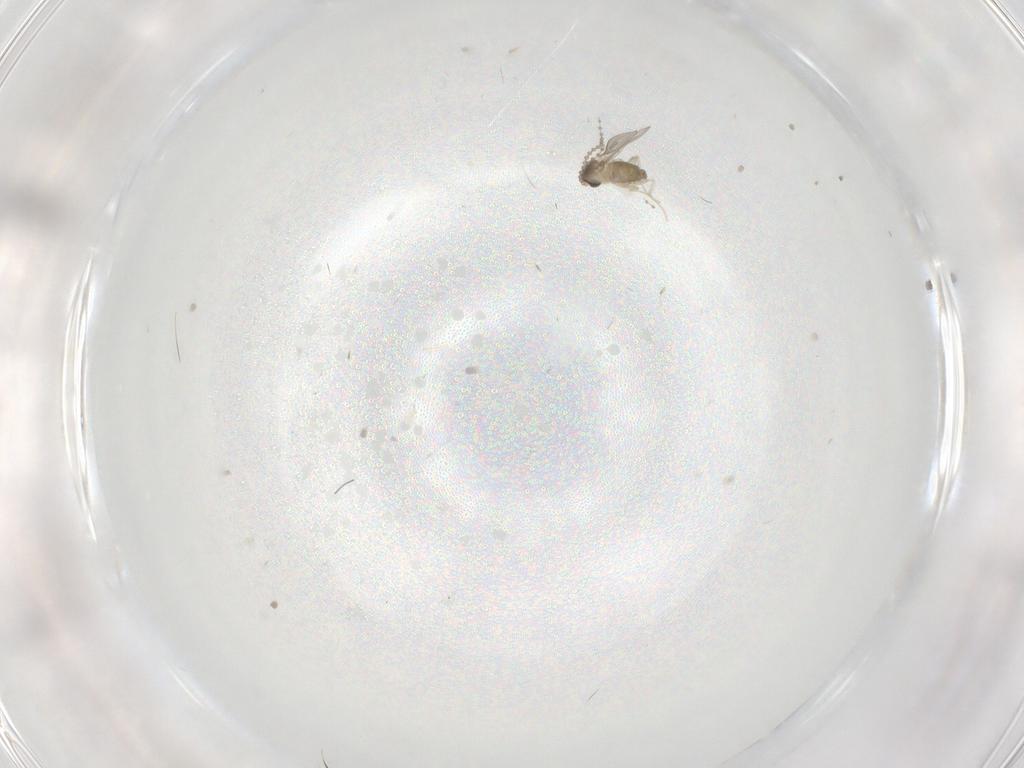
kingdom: Animalia
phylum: Arthropoda
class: Insecta
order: Diptera
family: Cecidomyiidae
